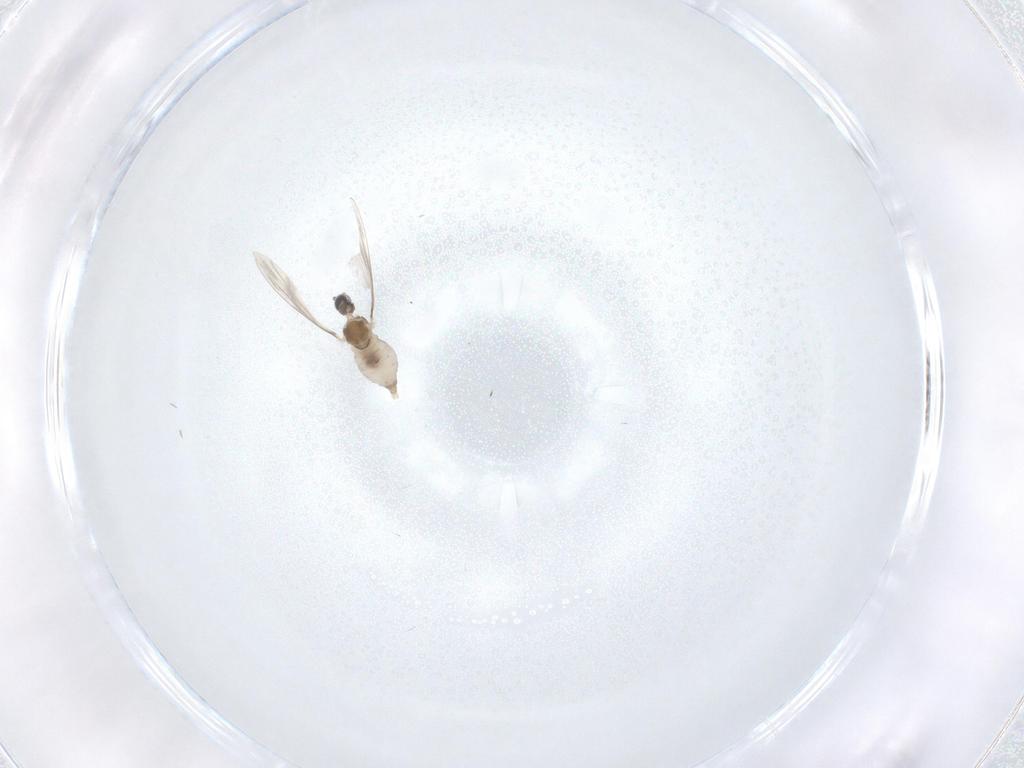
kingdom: Animalia
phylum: Arthropoda
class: Insecta
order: Diptera
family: Cecidomyiidae
